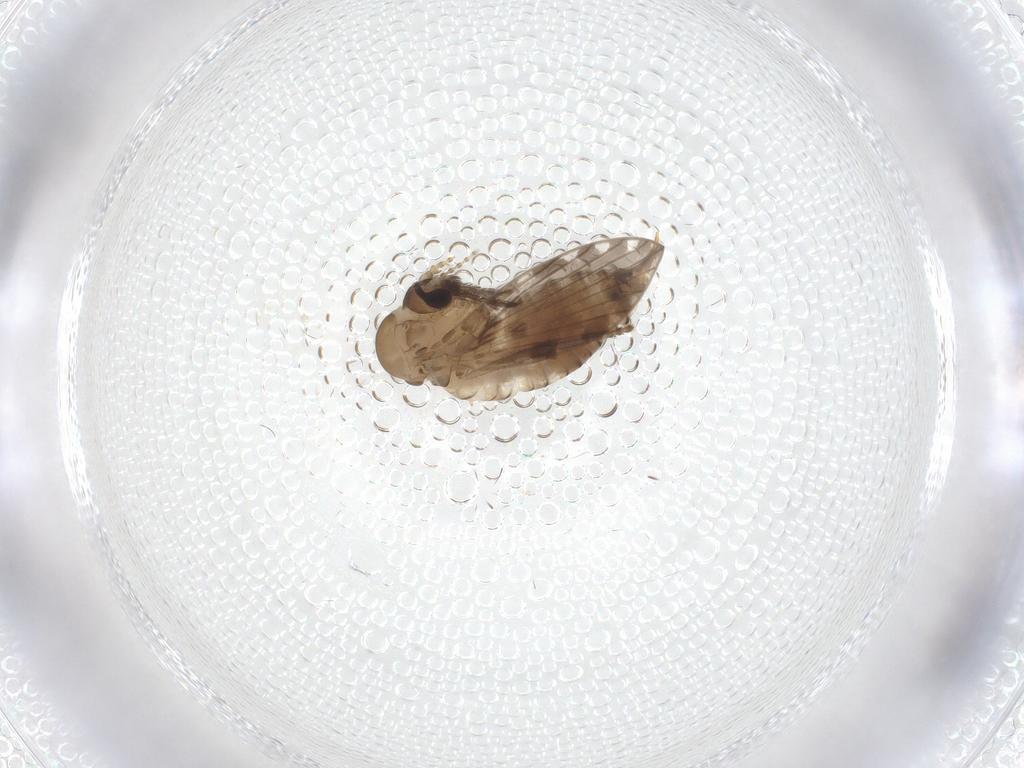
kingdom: Animalia
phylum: Arthropoda
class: Insecta
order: Diptera
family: Psychodidae
